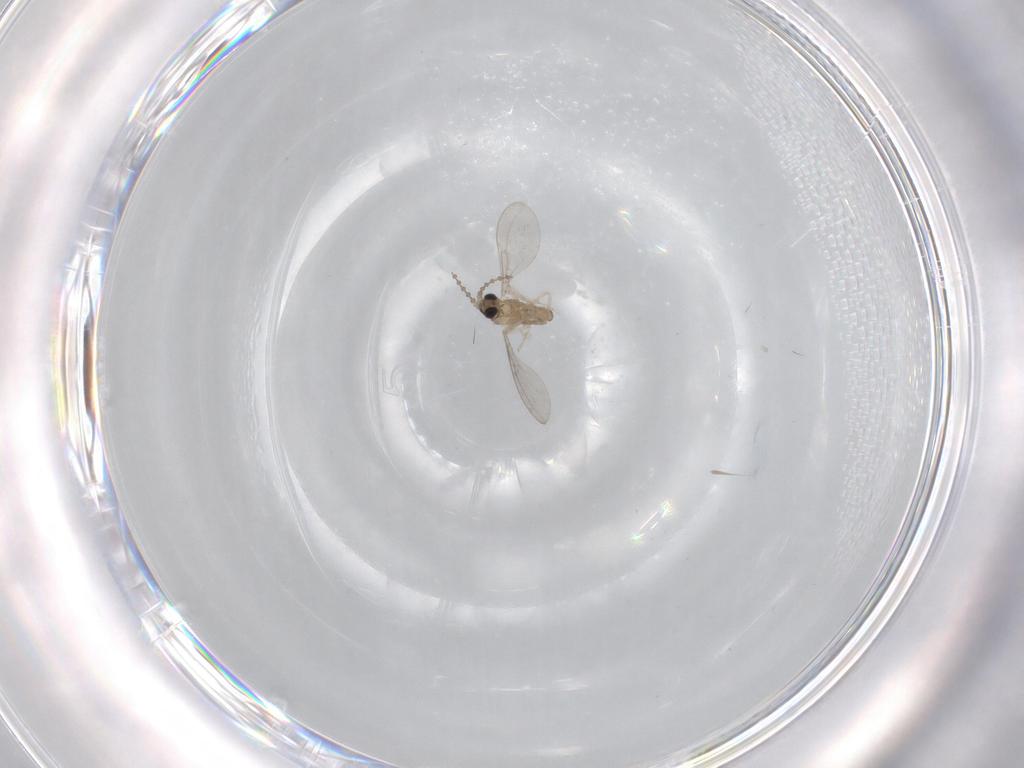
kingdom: Animalia
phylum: Arthropoda
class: Insecta
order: Diptera
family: Cecidomyiidae
